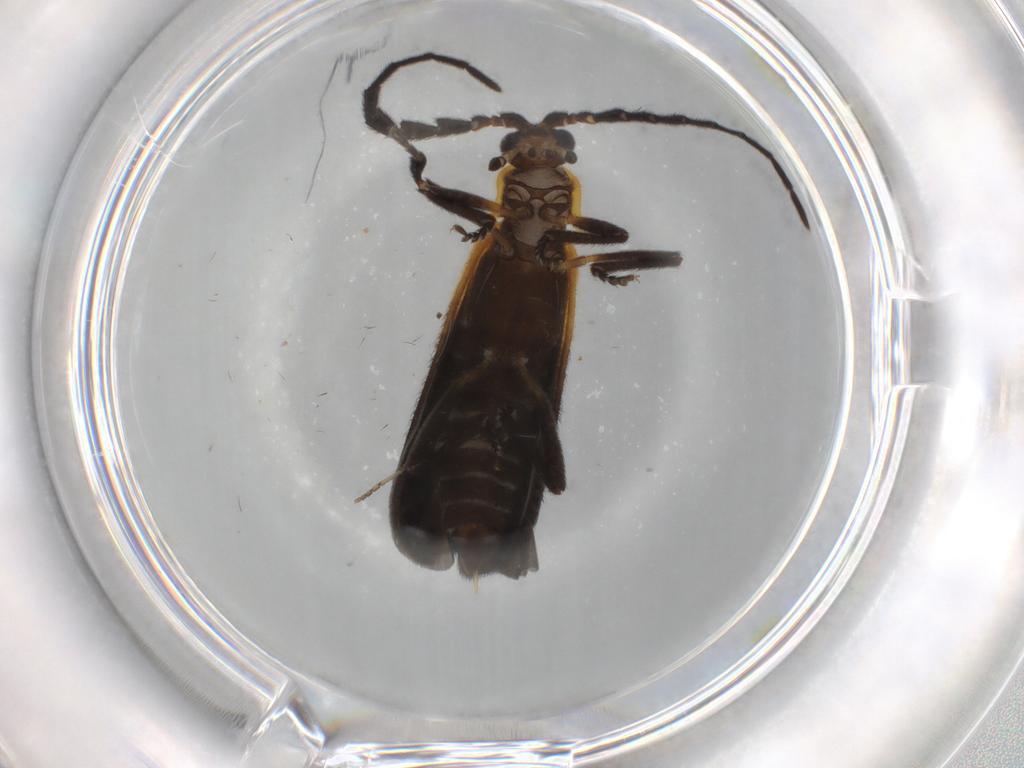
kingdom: Animalia
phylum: Arthropoda
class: Insecta
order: Coleoptera
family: Lycidae
